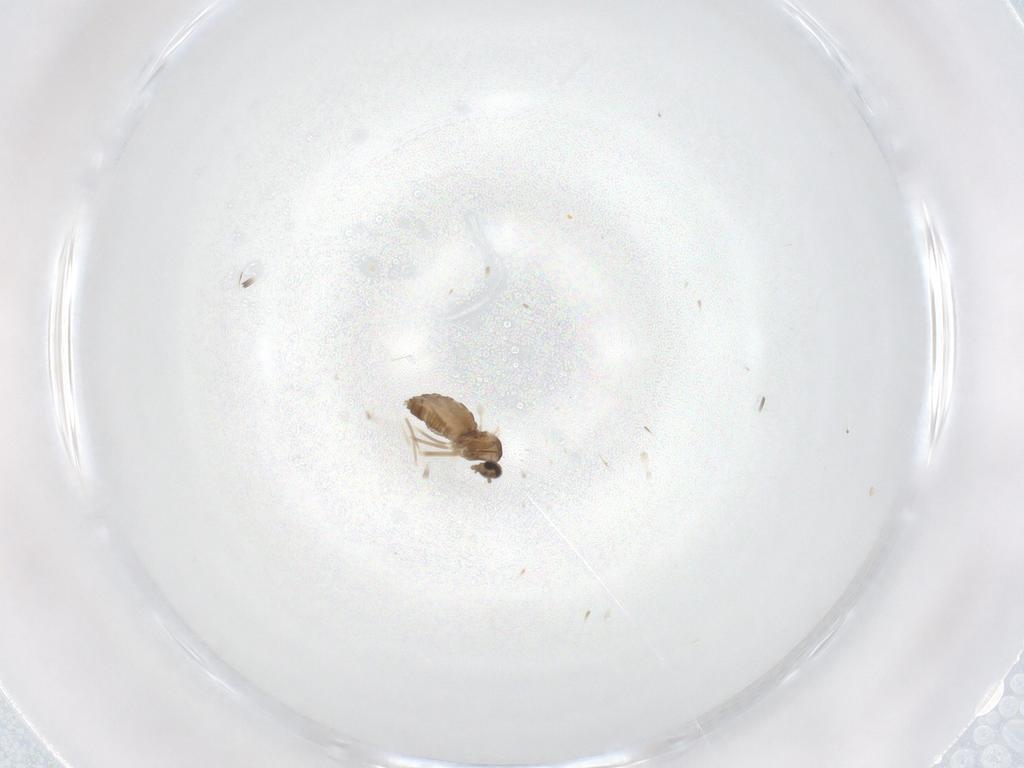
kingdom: Animalia
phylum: Arthropoda
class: Insecta
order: Diptera
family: Cecidomyiidae
